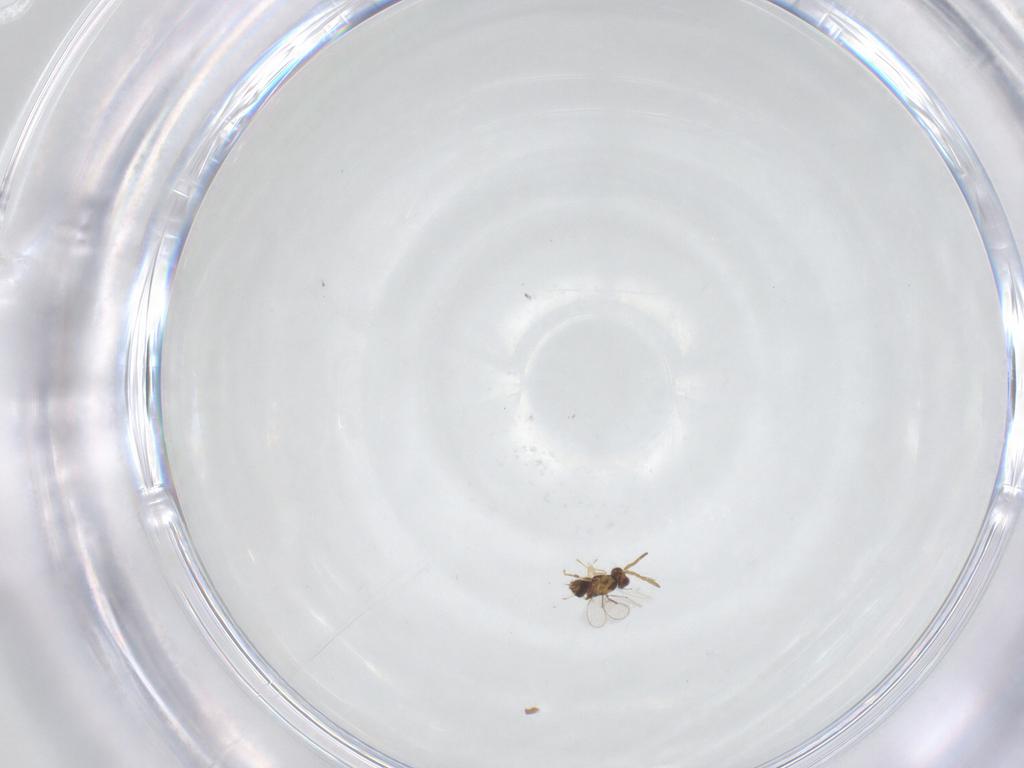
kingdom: Animalia
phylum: Arthropoda
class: Insecta
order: Hymenoptera
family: Aphelinidae
